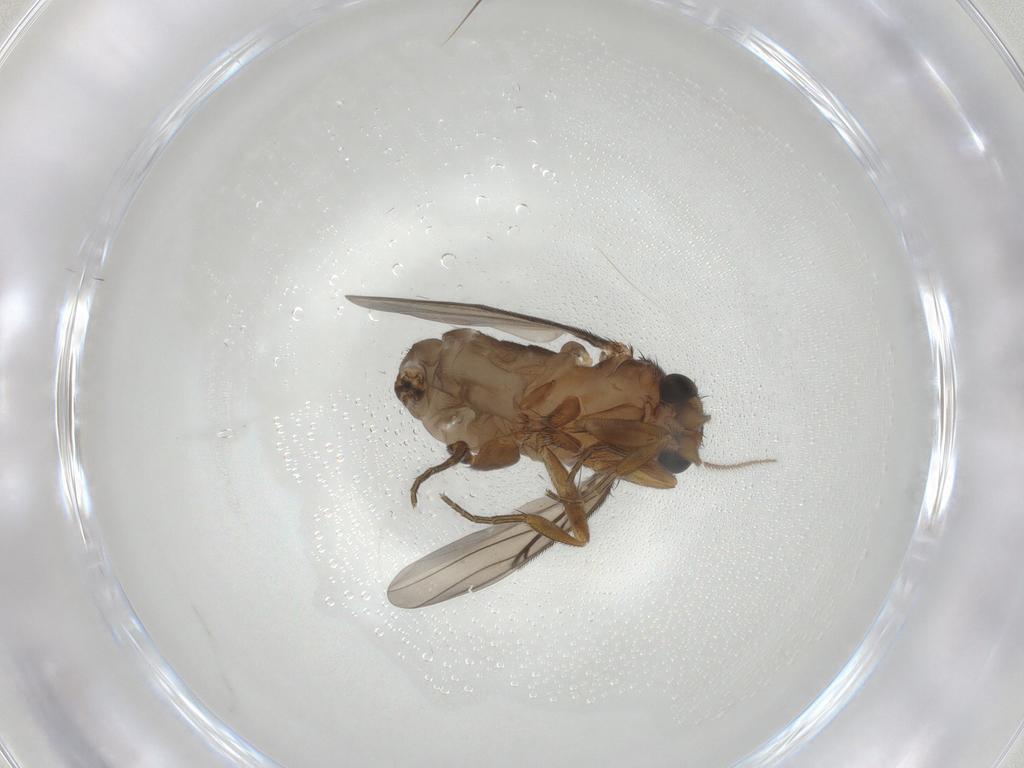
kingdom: Animalia
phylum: Arthropoda
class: Insecta
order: Diptera
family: Phoridae
